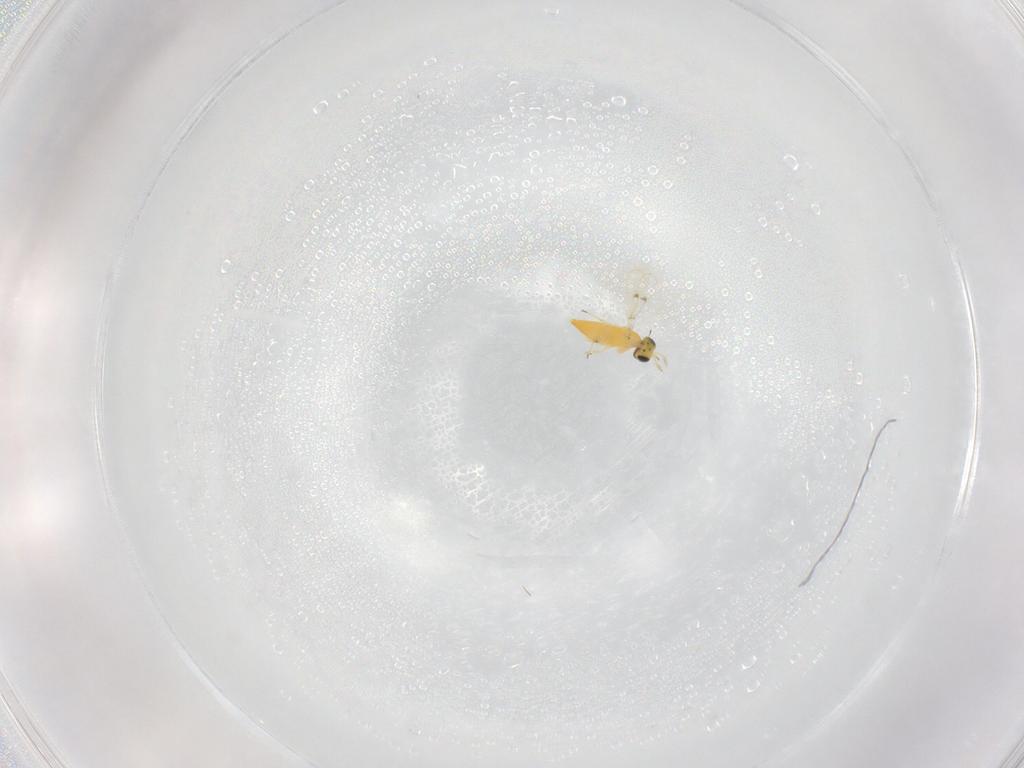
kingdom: Animalia
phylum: Arthropoda
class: Insecta
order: Hymenoptera
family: Trichogrammatidae
